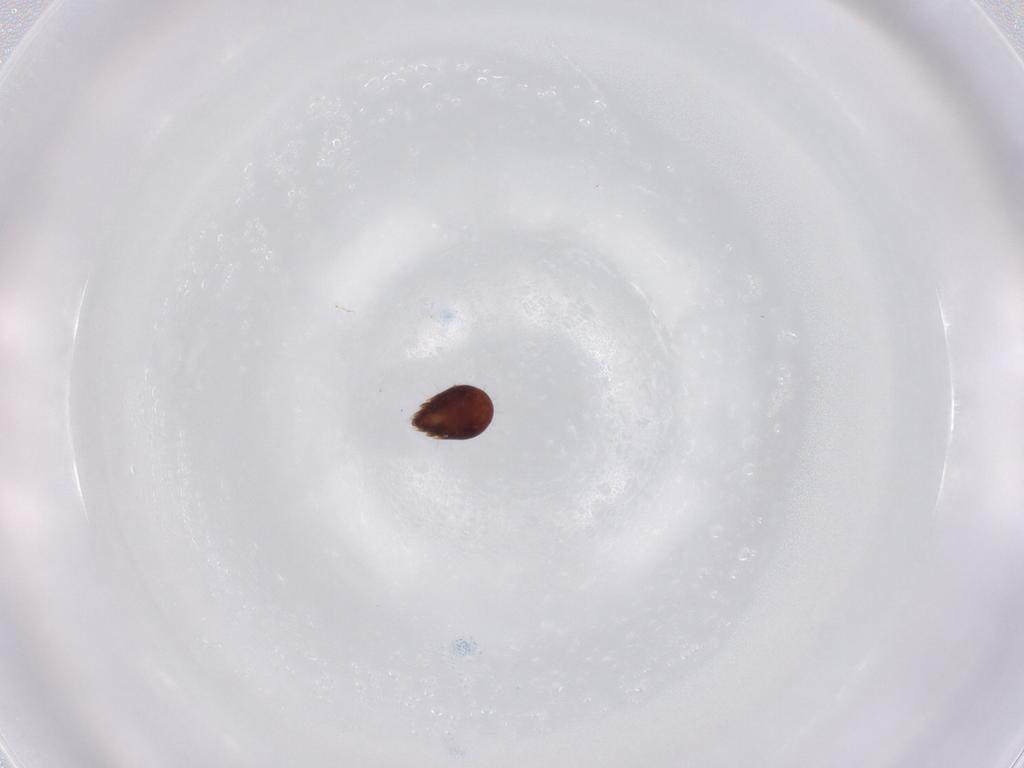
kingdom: Animalia
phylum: Arthropoda
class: Arachnida
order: Sarcoptiformes
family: Ceratozetidae
